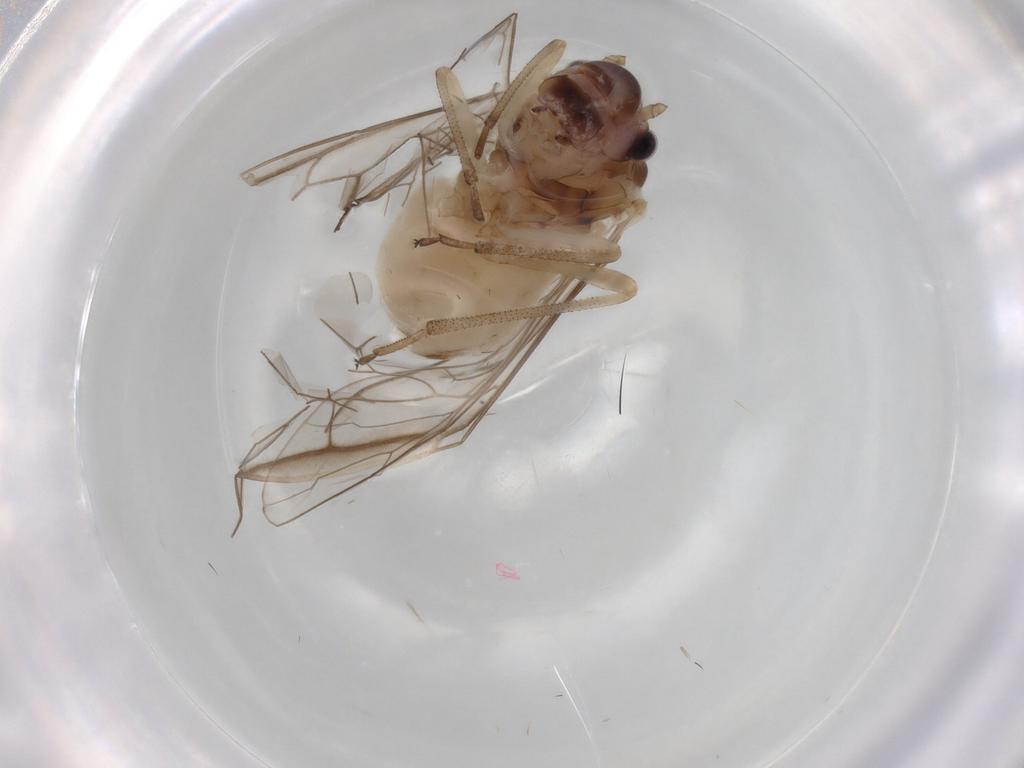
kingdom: Animalia
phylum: Arthropoda
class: Insecta
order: Psocodea
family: Stenopsocidae
